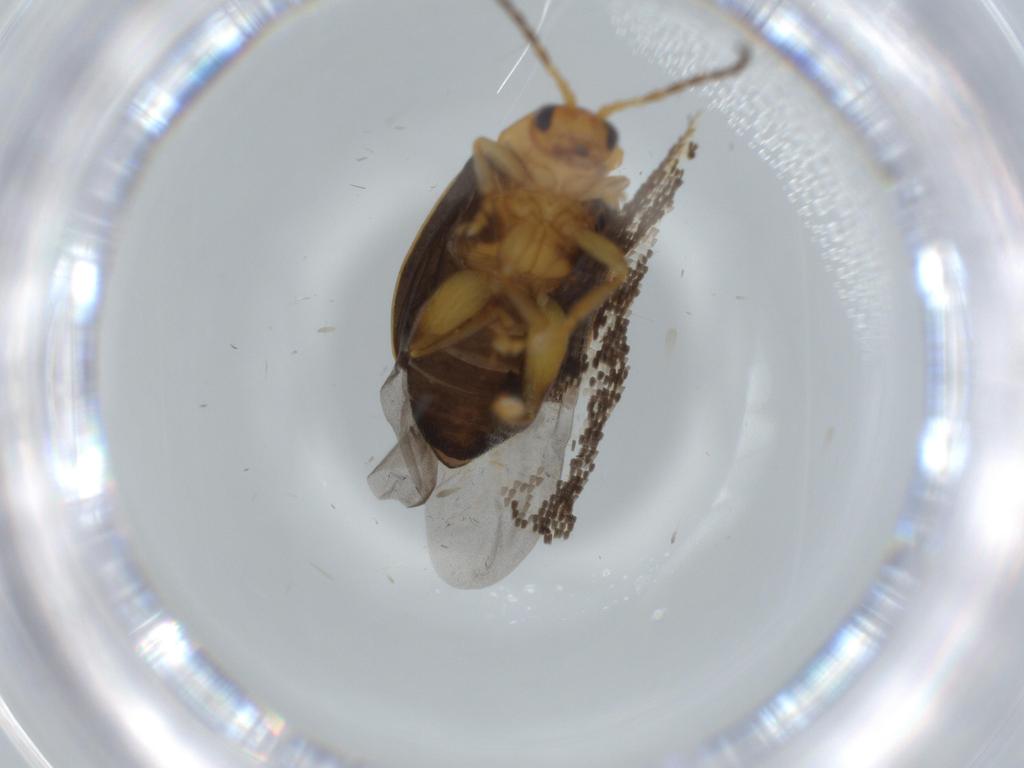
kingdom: Animalia
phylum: Arthropoda
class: Insecta
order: Coleoptera
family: Chrysomelidae
